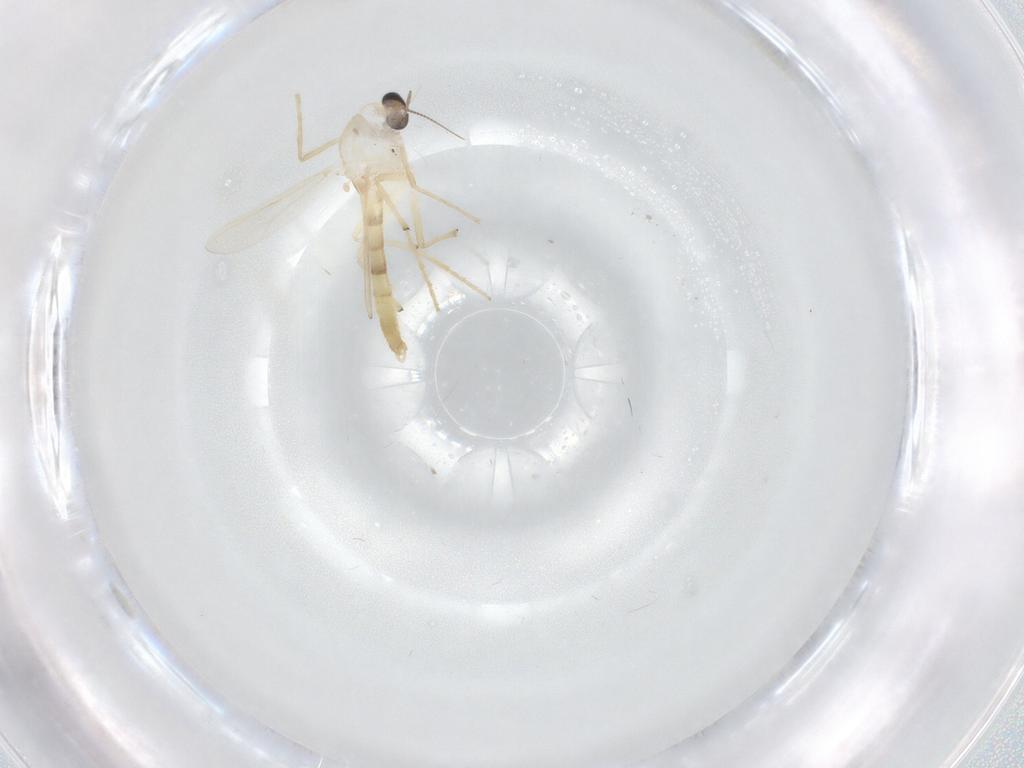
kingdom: Animalia
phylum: Arthropoda
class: Insecta
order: Diptera
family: Chironomidae
